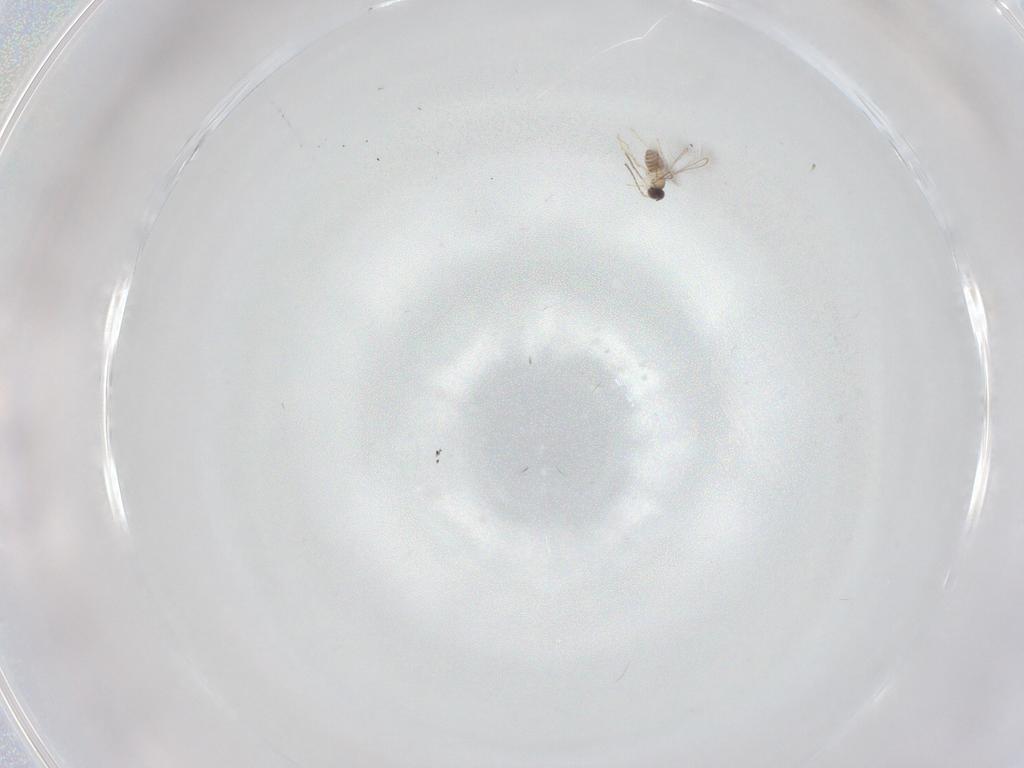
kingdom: Animalia
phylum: Arthropoda
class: Insecta
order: Hymenoptera
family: Mymaridae
